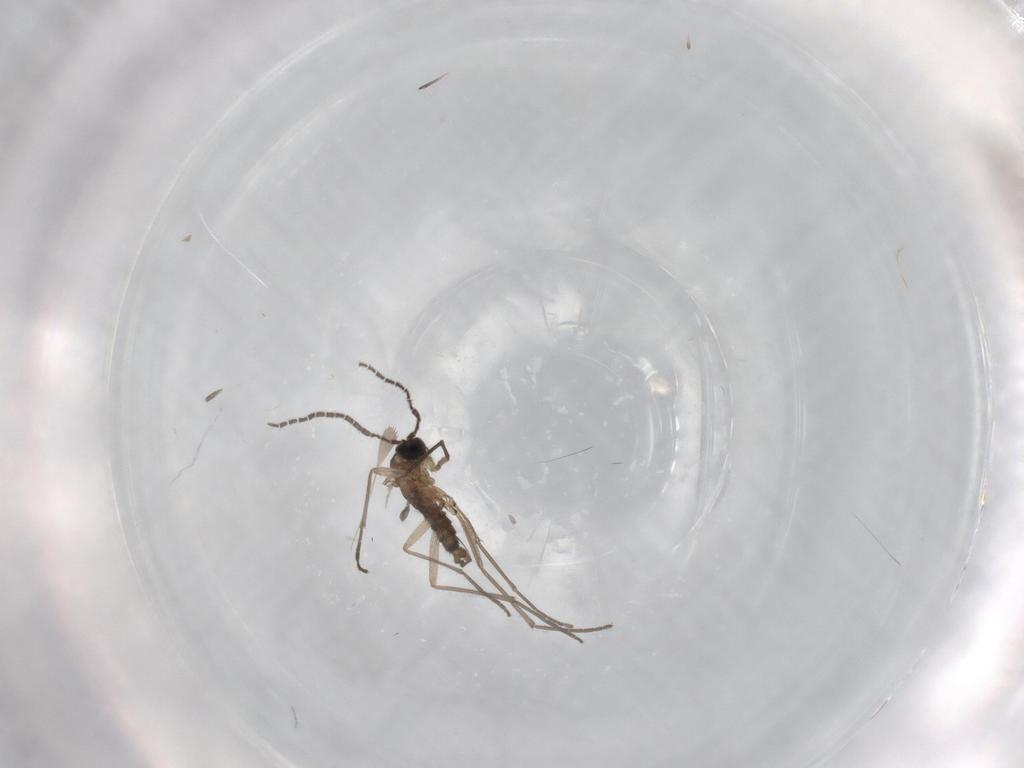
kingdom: Animalia
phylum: Arthropoda
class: Insecta
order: Diptera
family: Sciaridae
